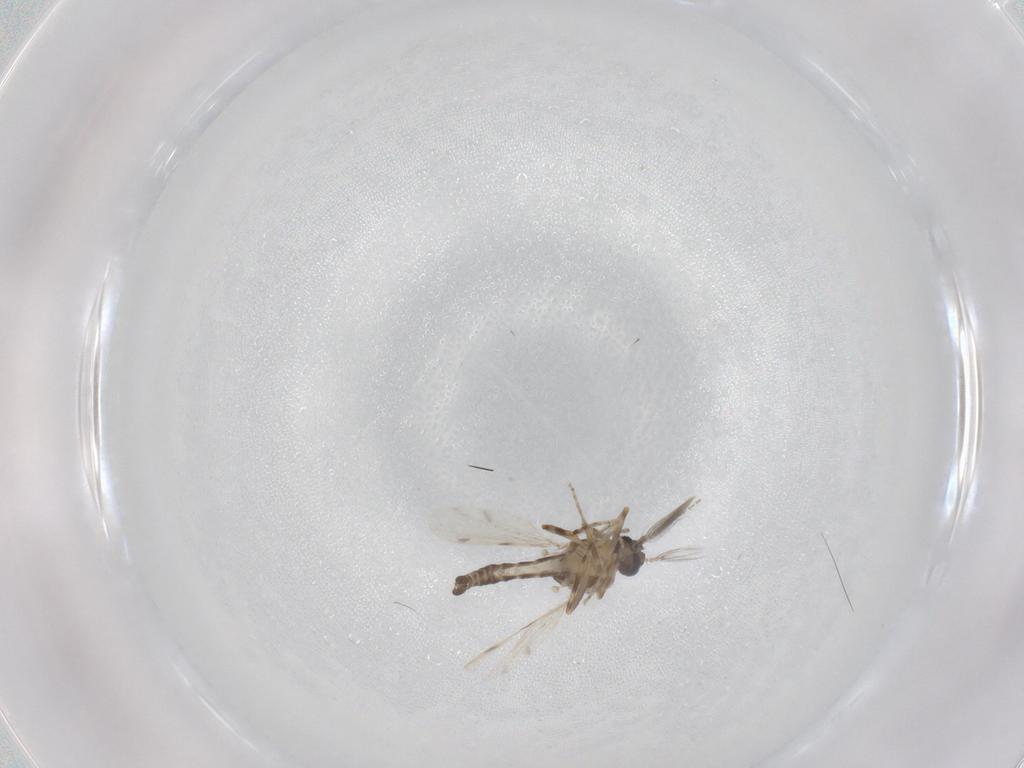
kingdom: Animalia
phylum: Arthropoda
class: Insecta
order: Diptera
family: Ceratopogonidae
